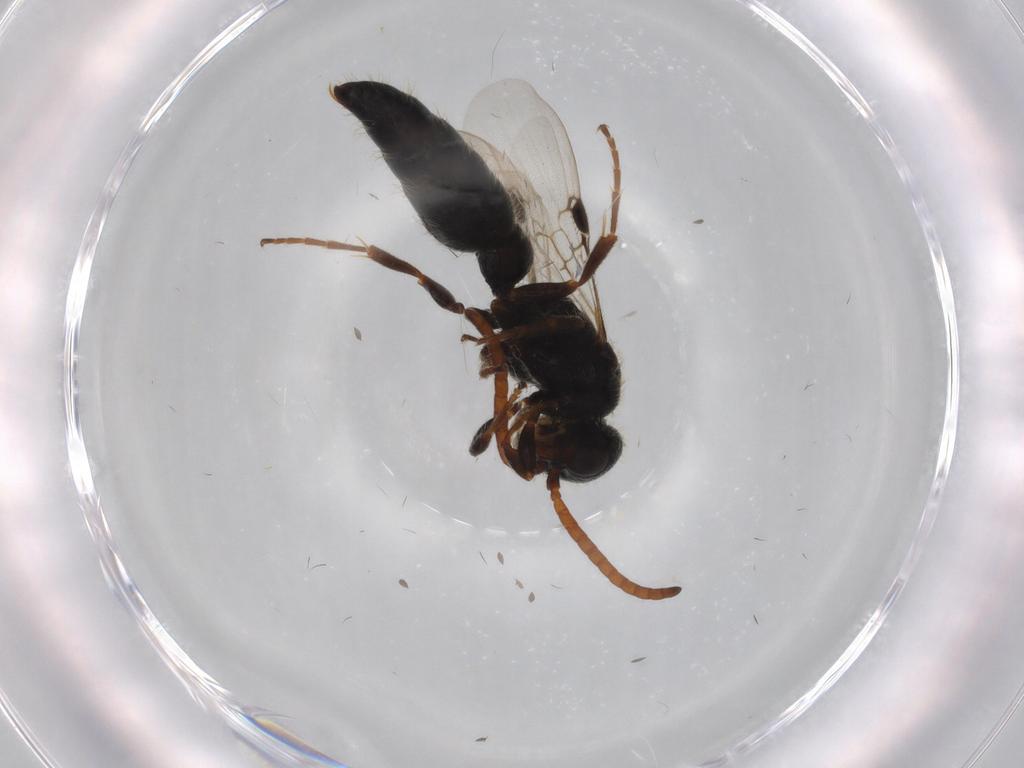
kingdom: Animalia
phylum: Arthropoda
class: Insecta
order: Hymenoptera
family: Tiphiidae
